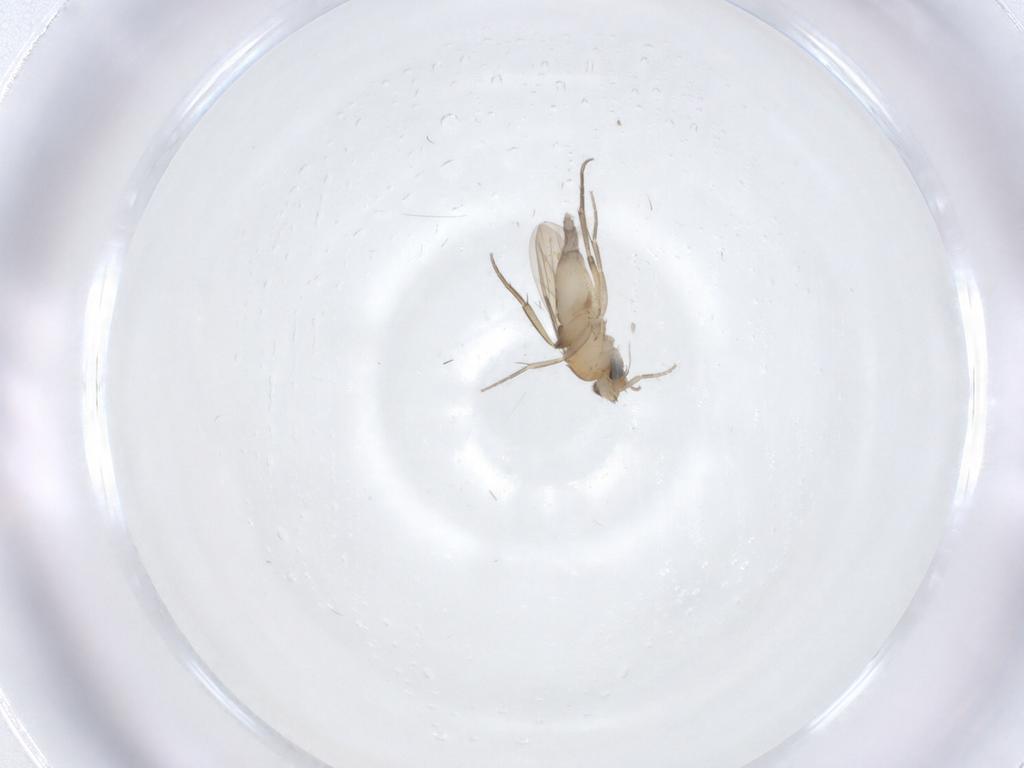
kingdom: Animalia
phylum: Arthropoda
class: Insecta
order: Diptera
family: Phoridae
